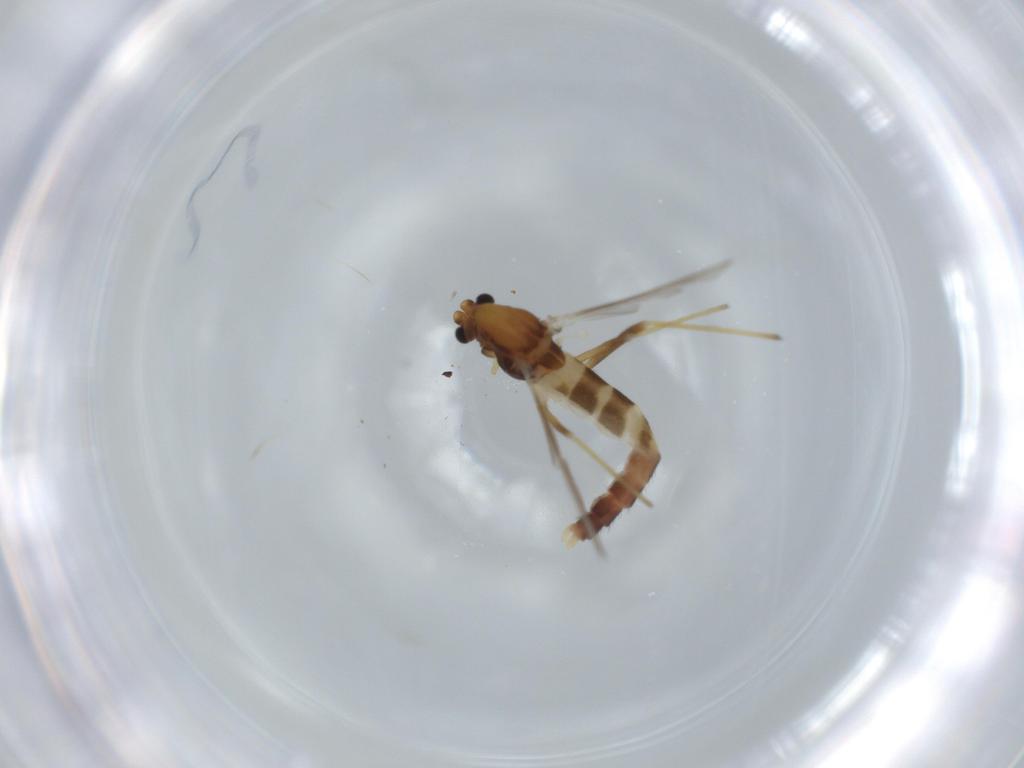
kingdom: Animalia
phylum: Arthropoda
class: Insecta
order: Diptera
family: Chironomidae
